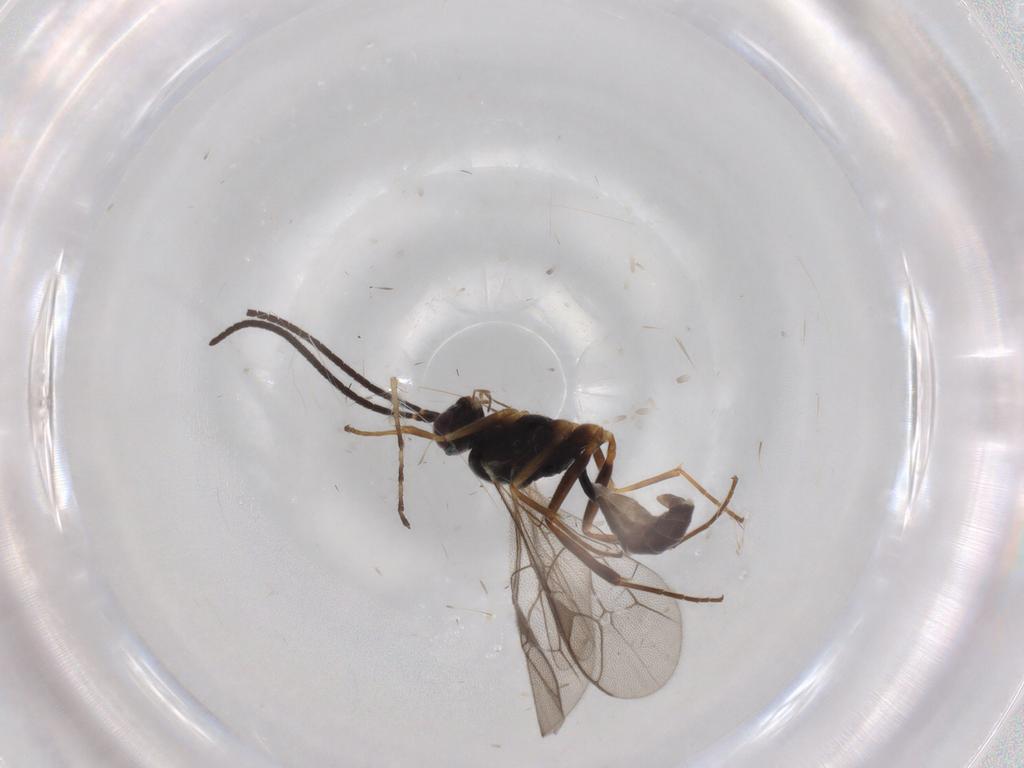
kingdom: Animalia
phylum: Arthropoda
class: Insecta
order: Hymenoptera
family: Ichneumonidae
